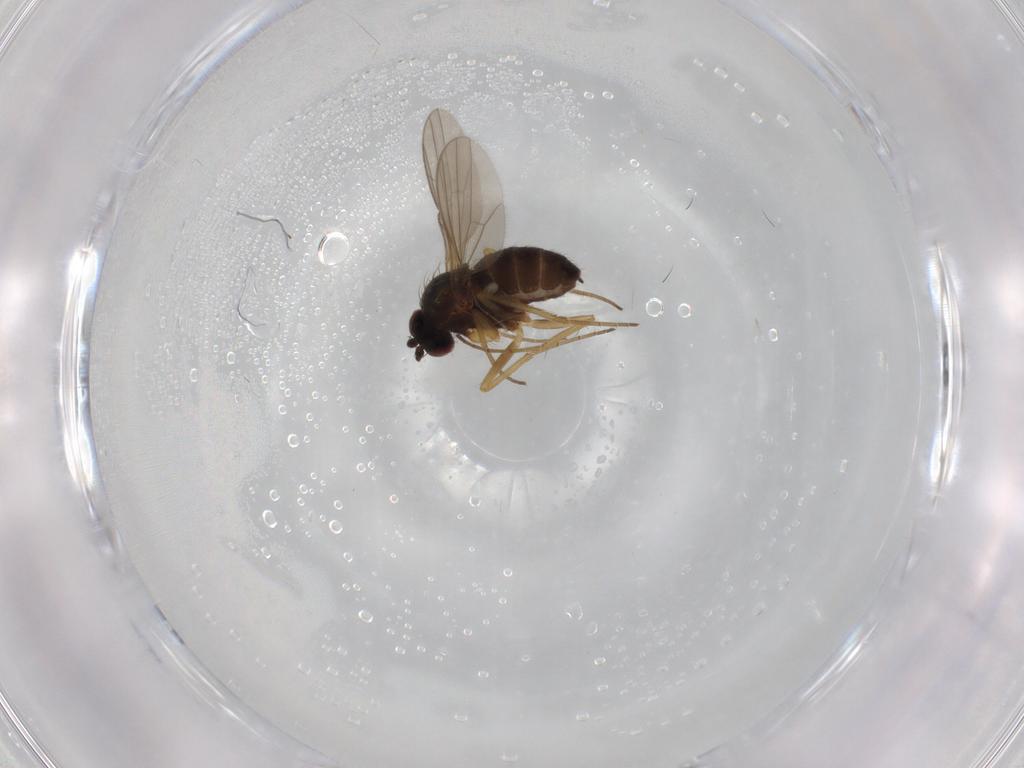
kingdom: Animalia
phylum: Arthropoda
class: Insecta
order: Diptera
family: Dolichopodidae
